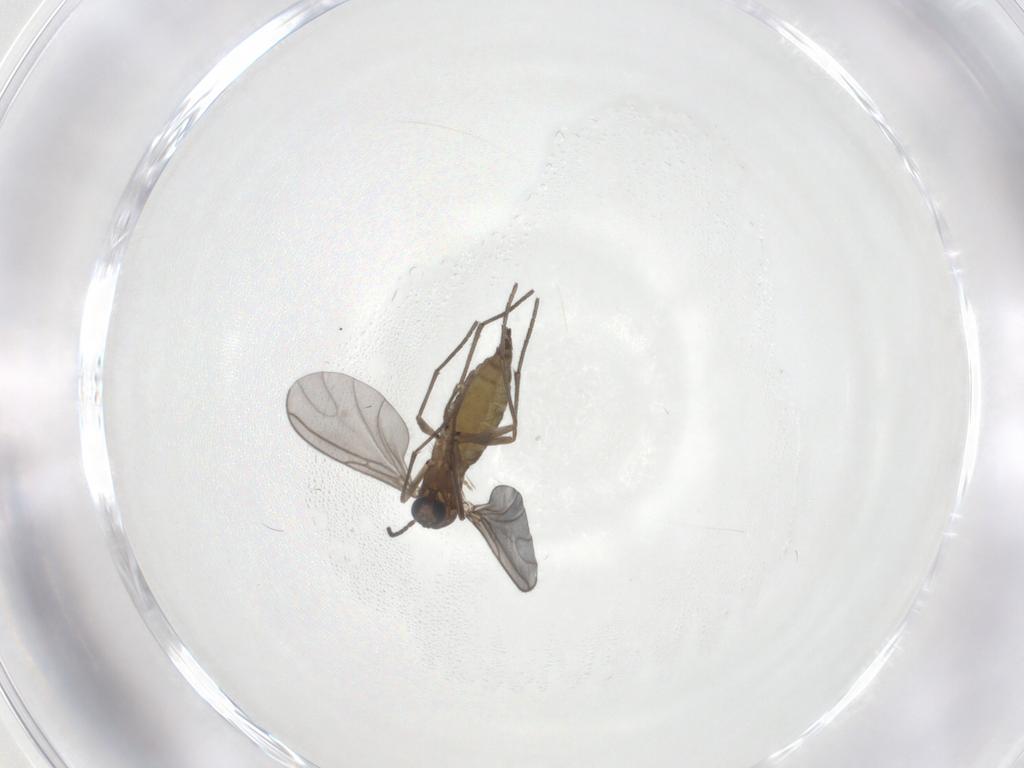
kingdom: Animalia
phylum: Arthropoda
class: Insecta
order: Diptera
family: Sciaridae
